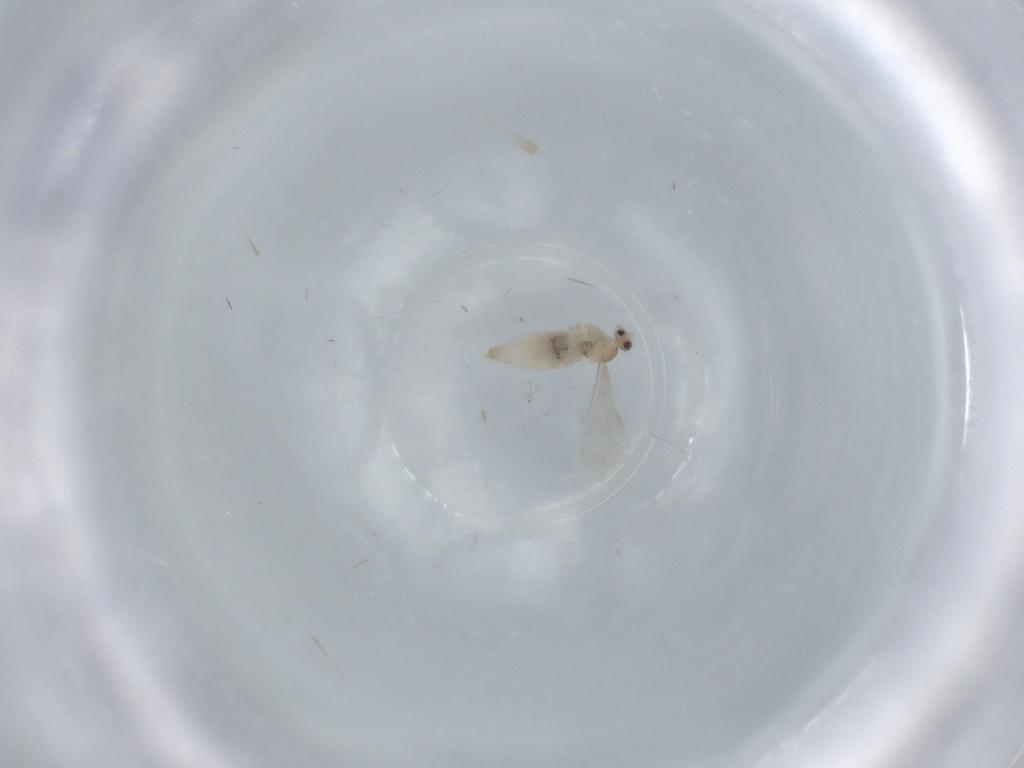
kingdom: Animalia
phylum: Arthropoda
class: Insecta
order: Diptera
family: Cecidomyiidae
